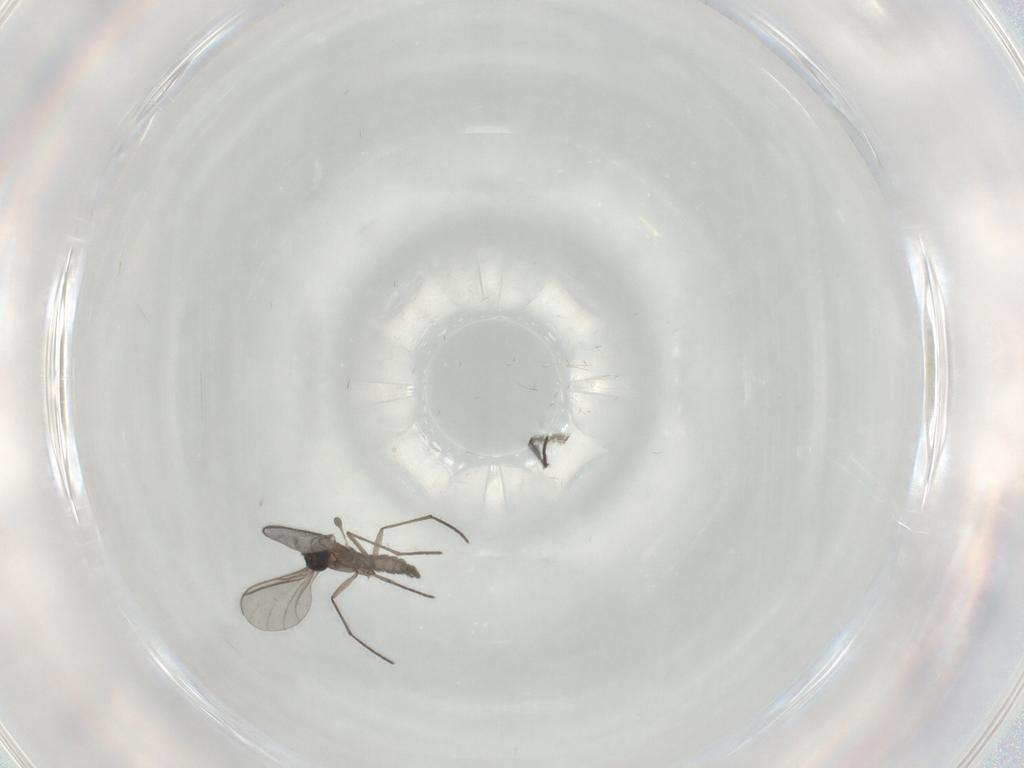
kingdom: Animalia
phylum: Arthropoda
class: Insecta
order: Diptera
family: Sciaridae
